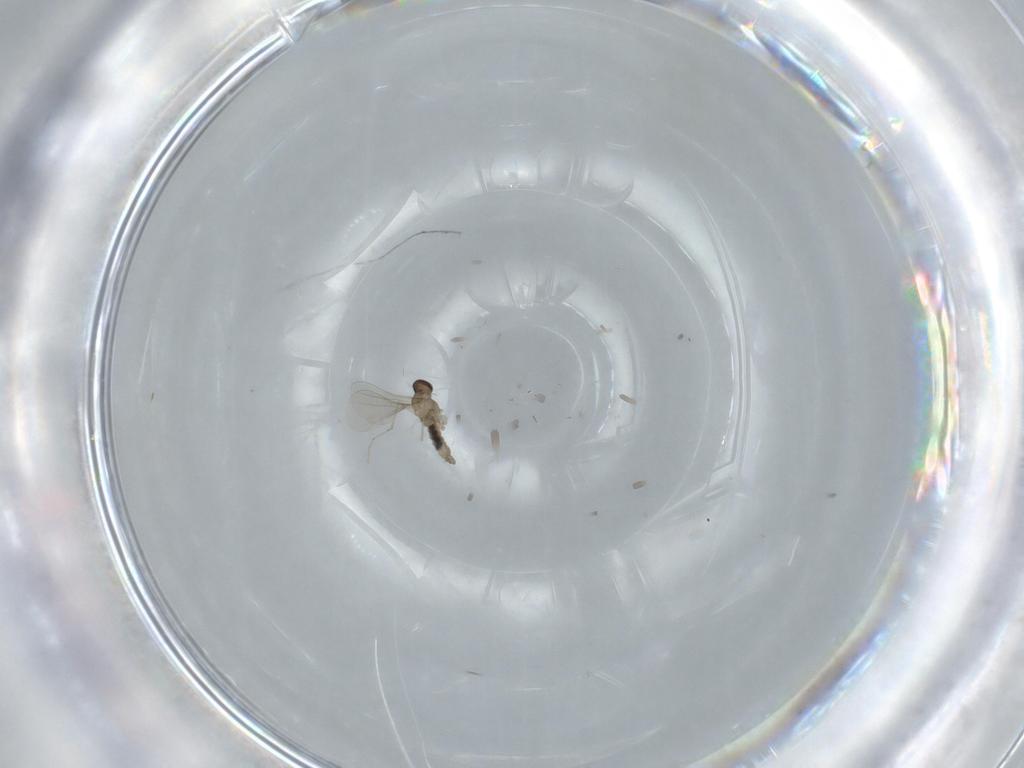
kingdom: Animalia
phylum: Arthropoda
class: Insecta
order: Diptera
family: Cecidomyiidae
